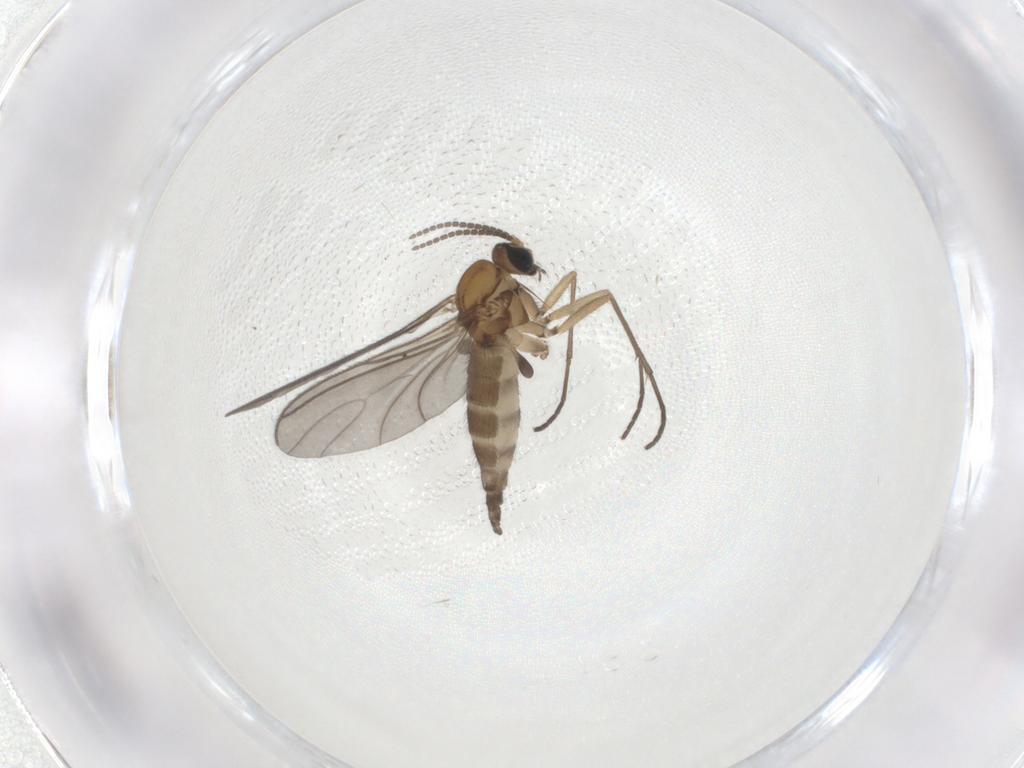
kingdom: Animalia
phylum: Arthropoda
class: Insecta
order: Diptera
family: Sciaridae
